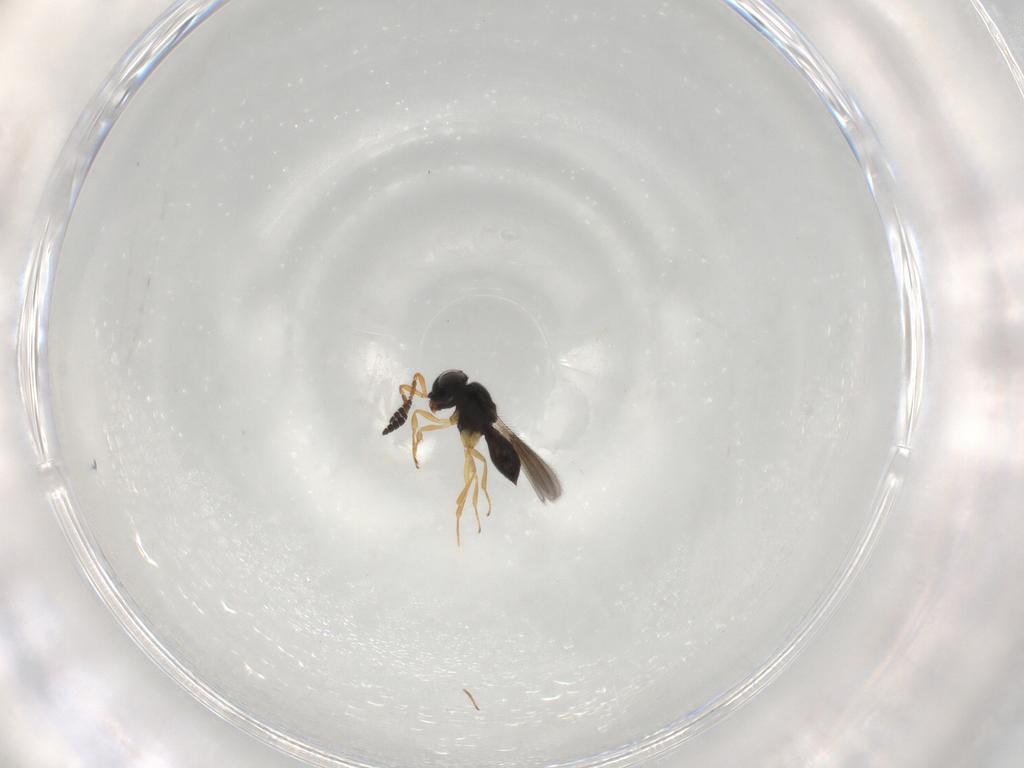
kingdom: Animalia
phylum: Arthropoda
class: Insecta
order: Hymenoptera
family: Scelionidae
